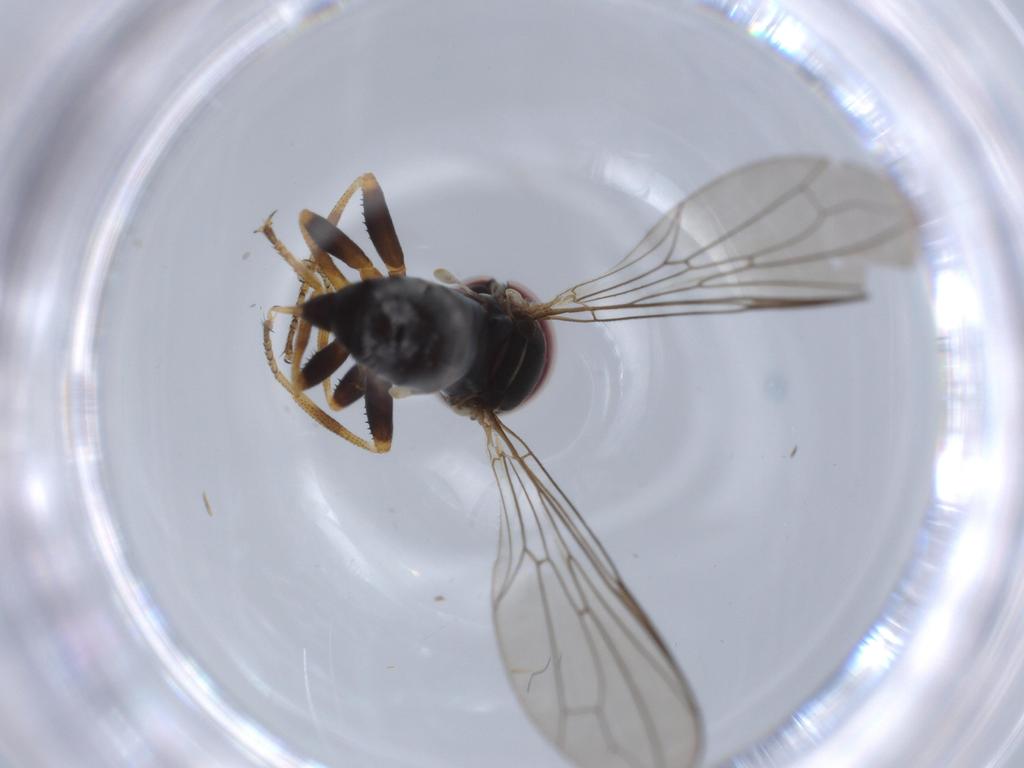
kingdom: Animalia
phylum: Arthropoda
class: Insecta
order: Diptera
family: Pipunculidae
